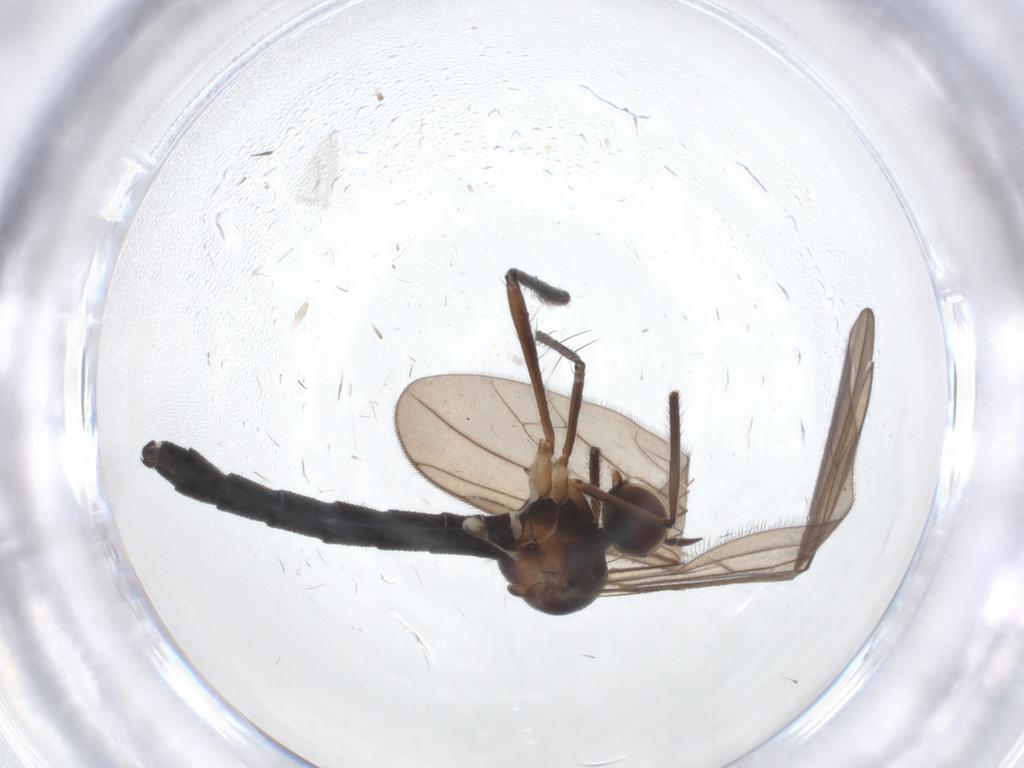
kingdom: Animalia
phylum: Arthropoda
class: Insecta
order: Diptera
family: Hybotidae
